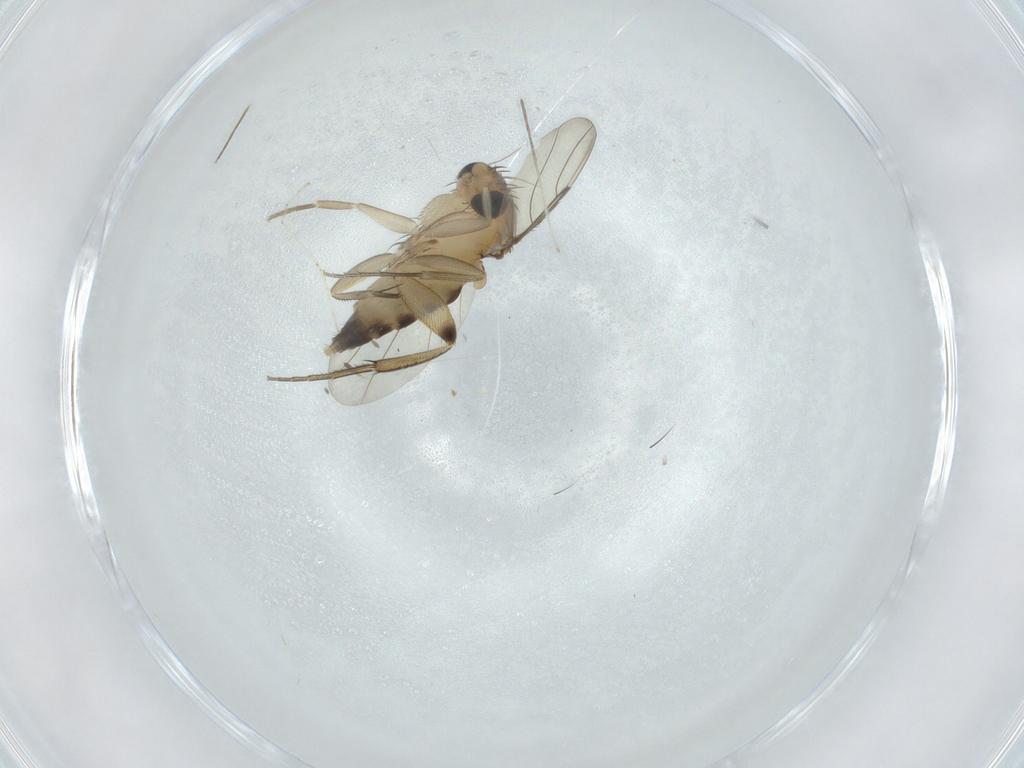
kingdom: Animalia
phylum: Arthropoda
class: Insecta
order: Diptera
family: Phoridae
